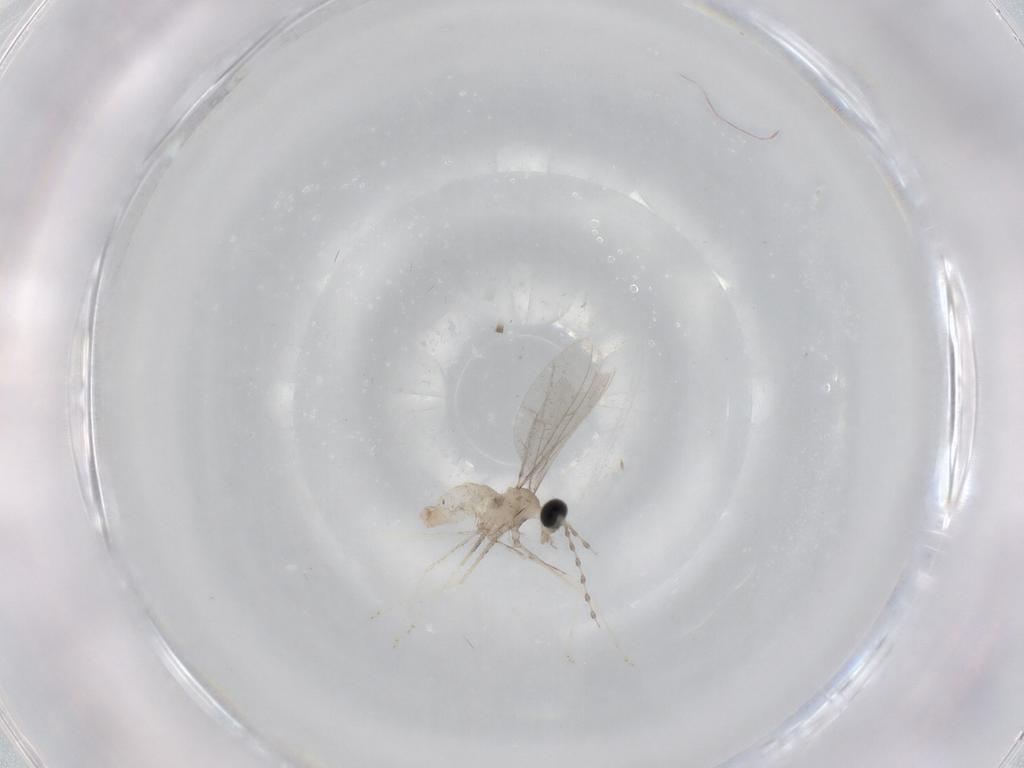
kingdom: Animalia
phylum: Arthropoda
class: Insecta
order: Diptera
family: Cecidomyiidae
